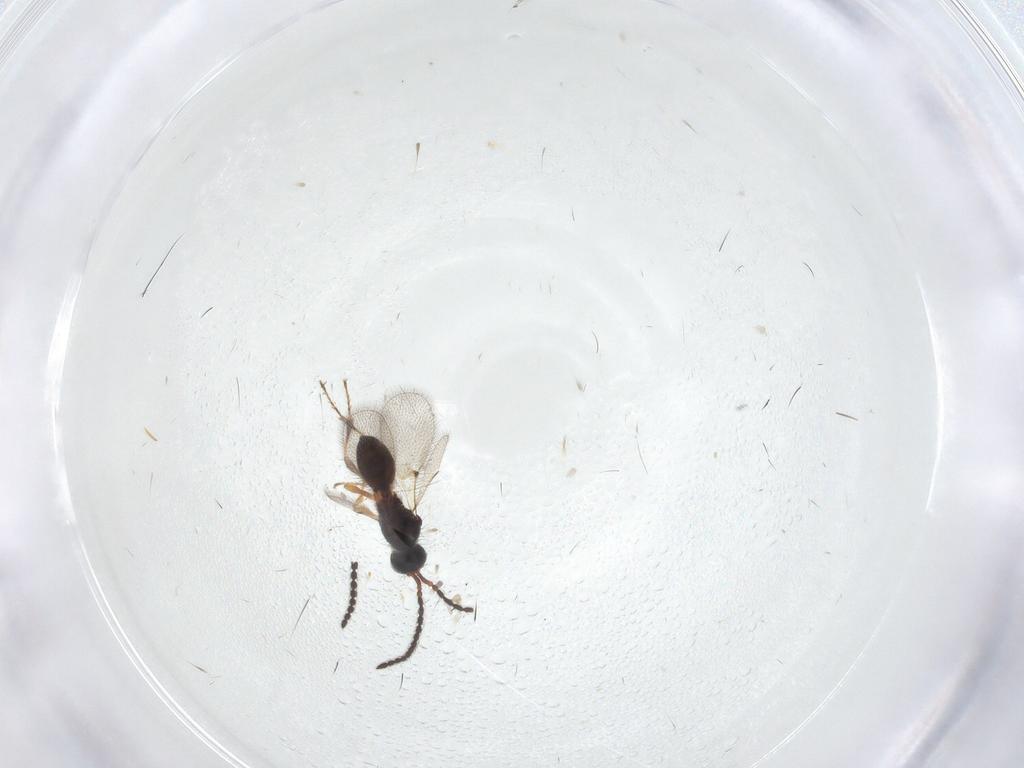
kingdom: Animalia
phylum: Arthropoda
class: Insecta
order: Hymenoptera
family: Diapriidae
